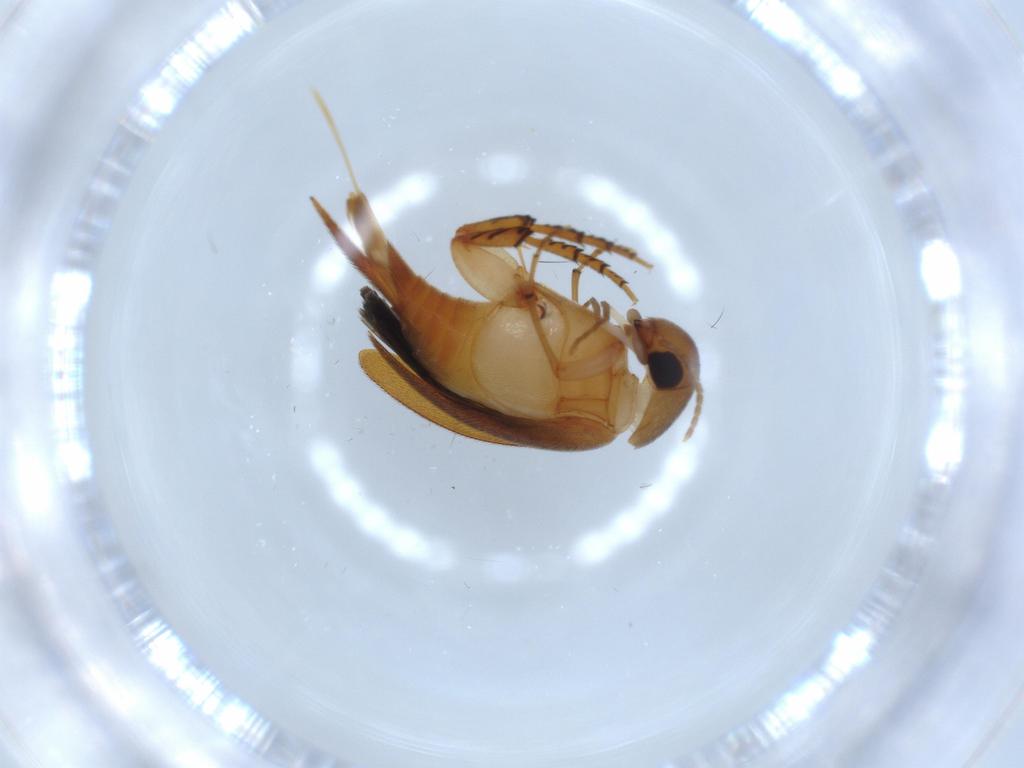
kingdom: Animalia
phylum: Arthropoda
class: Insecta
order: Coleoptera
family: Mordellidae
